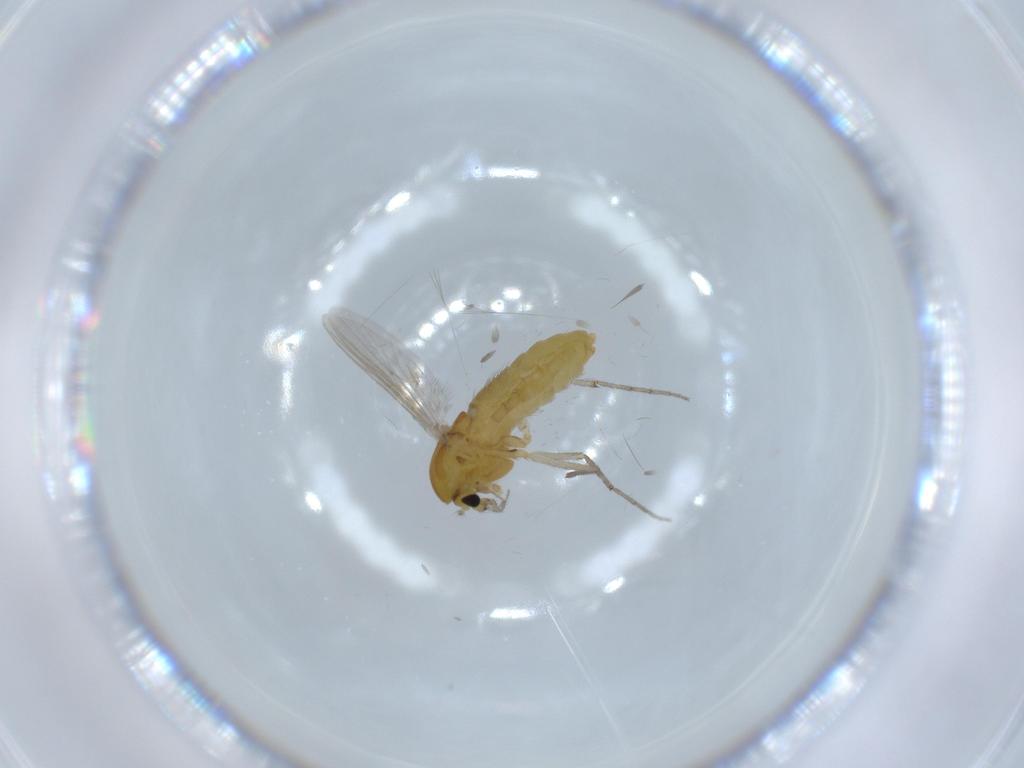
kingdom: Animalia
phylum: Arthropoda
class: Insecta
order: Diptera
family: Chironomidae
